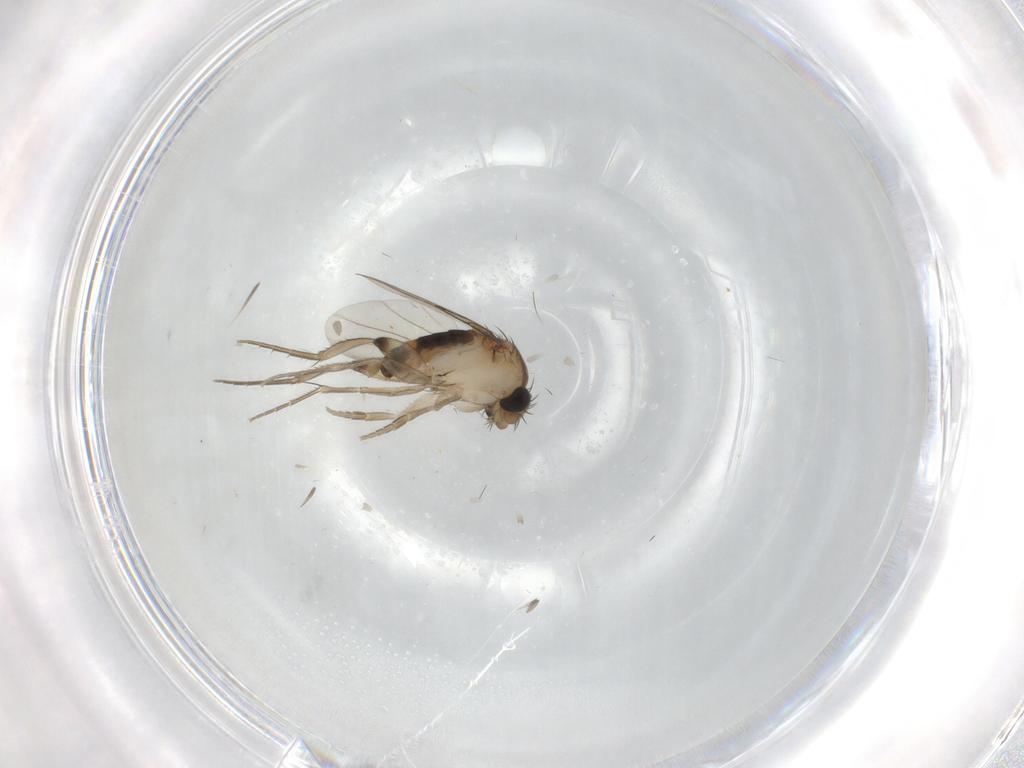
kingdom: Animalia
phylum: Arthropoda
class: Insecta
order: Diptera
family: Phoridae
